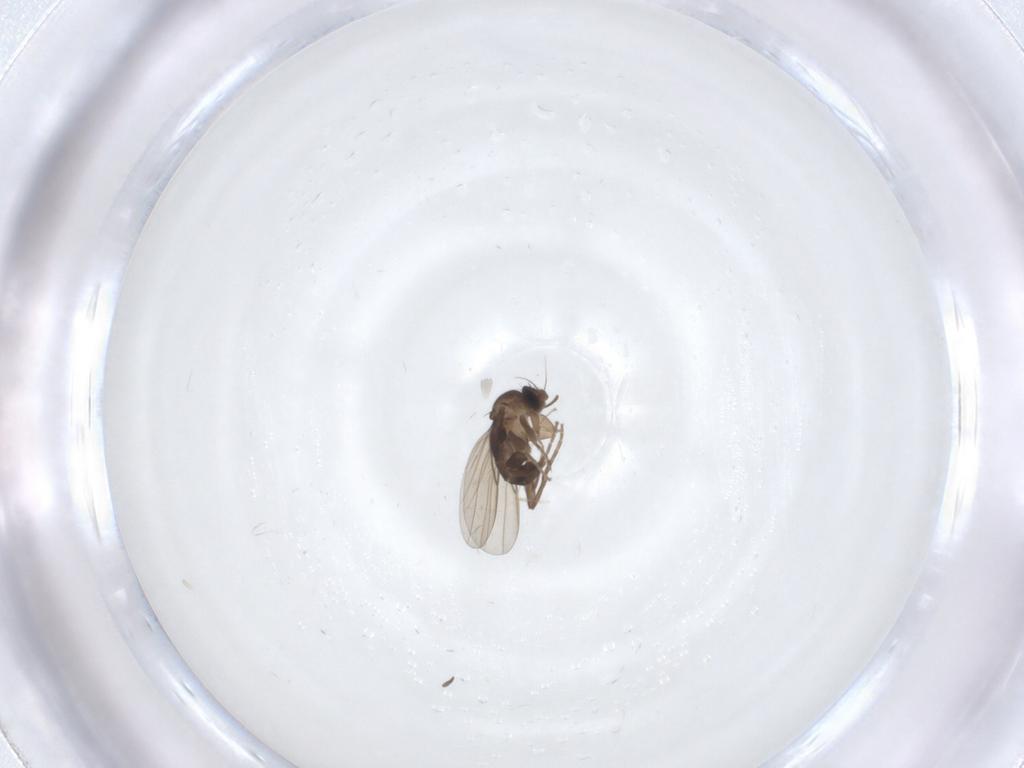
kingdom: Animalia
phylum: Arthropoda
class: Insecta
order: Diptera
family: Phoridae
